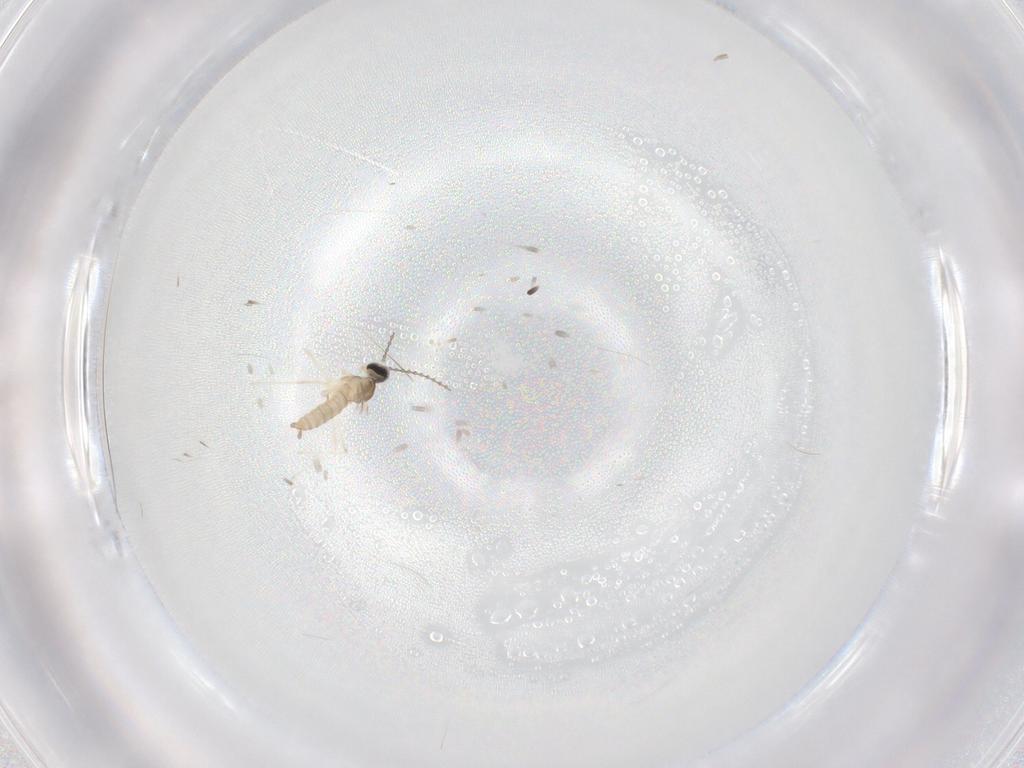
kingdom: Animalia
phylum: Arthropoda
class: Insecta
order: Diptera
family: Cecidomyiidae
